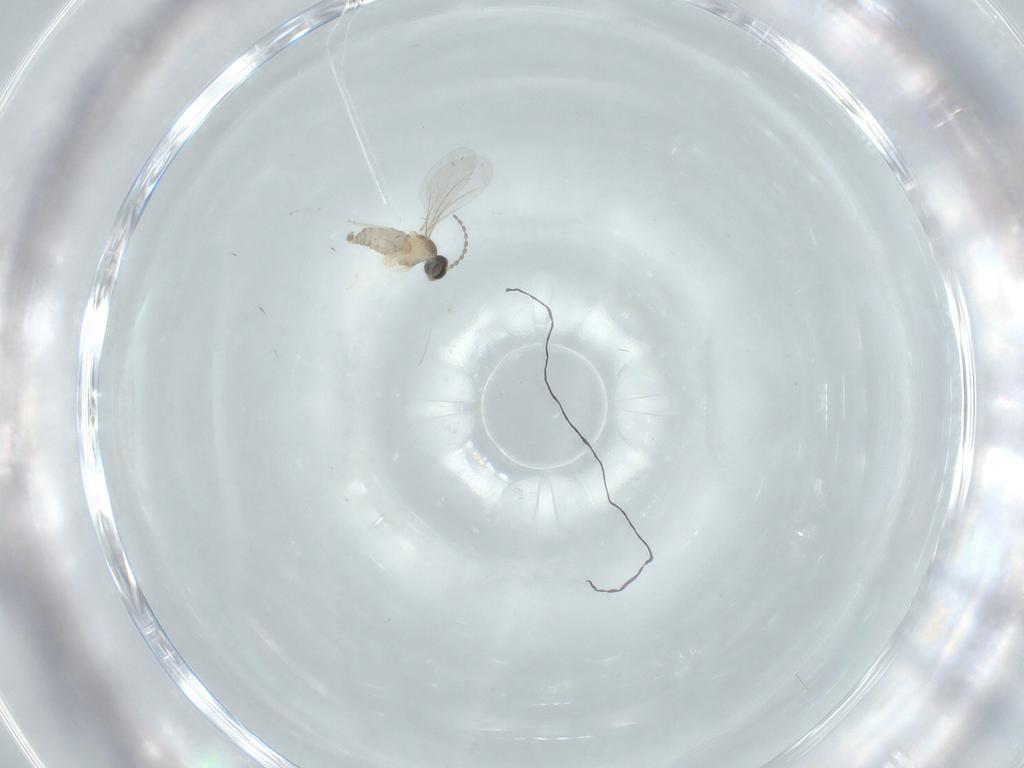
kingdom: Animalia
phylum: Arthropoda
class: Insecta
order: Diptera
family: Cecidomyiidae
